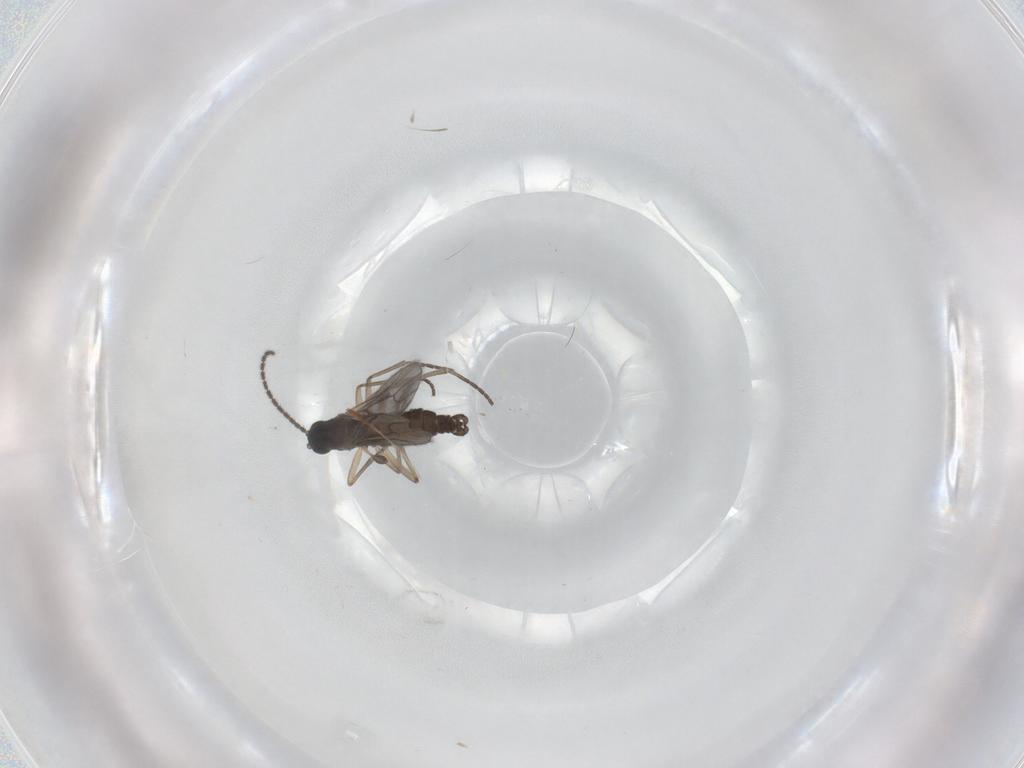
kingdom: Animalia
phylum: Arthropoda
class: Insecta
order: Diptera
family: Sciaridae
